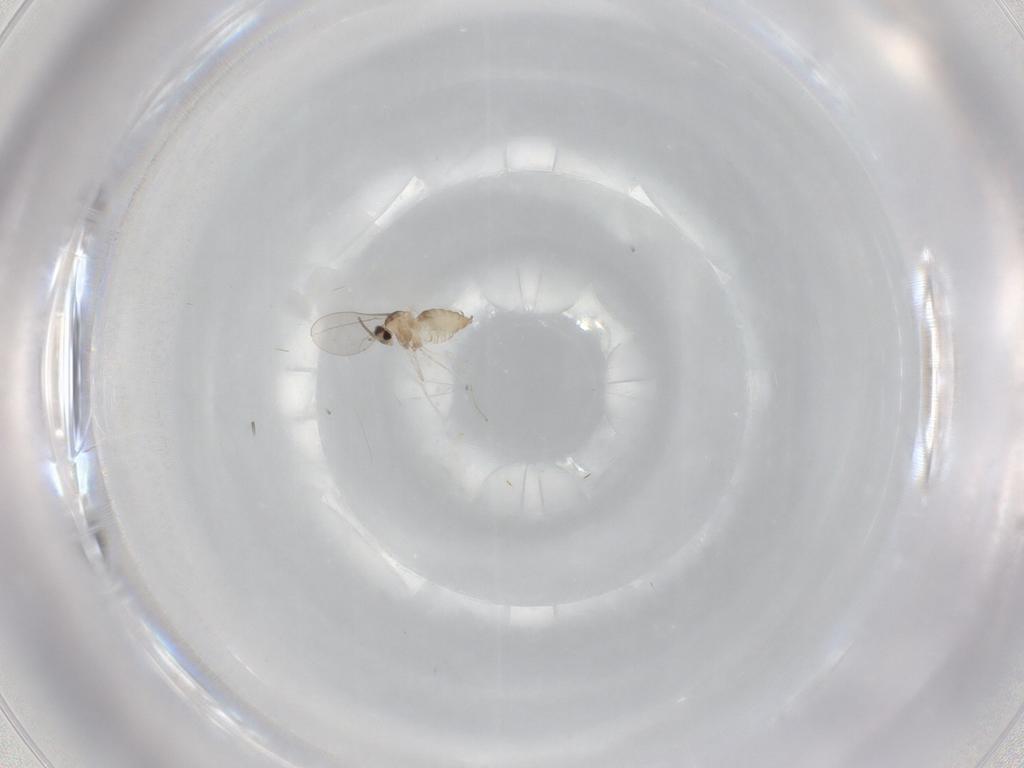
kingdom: Animalia
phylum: Arthropoda
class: Insecta
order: Diptera
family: Cecidomyiidae
